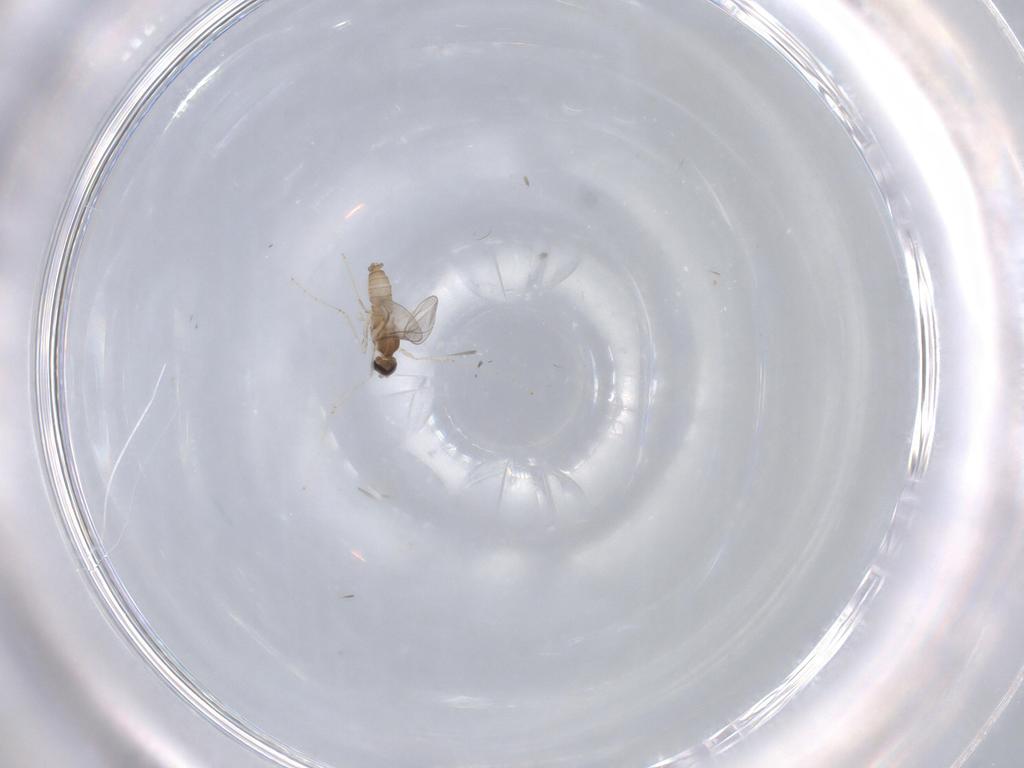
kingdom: Animalia
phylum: Arthropoda
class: Insecta
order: Diptera
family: Cecidomyiidae
